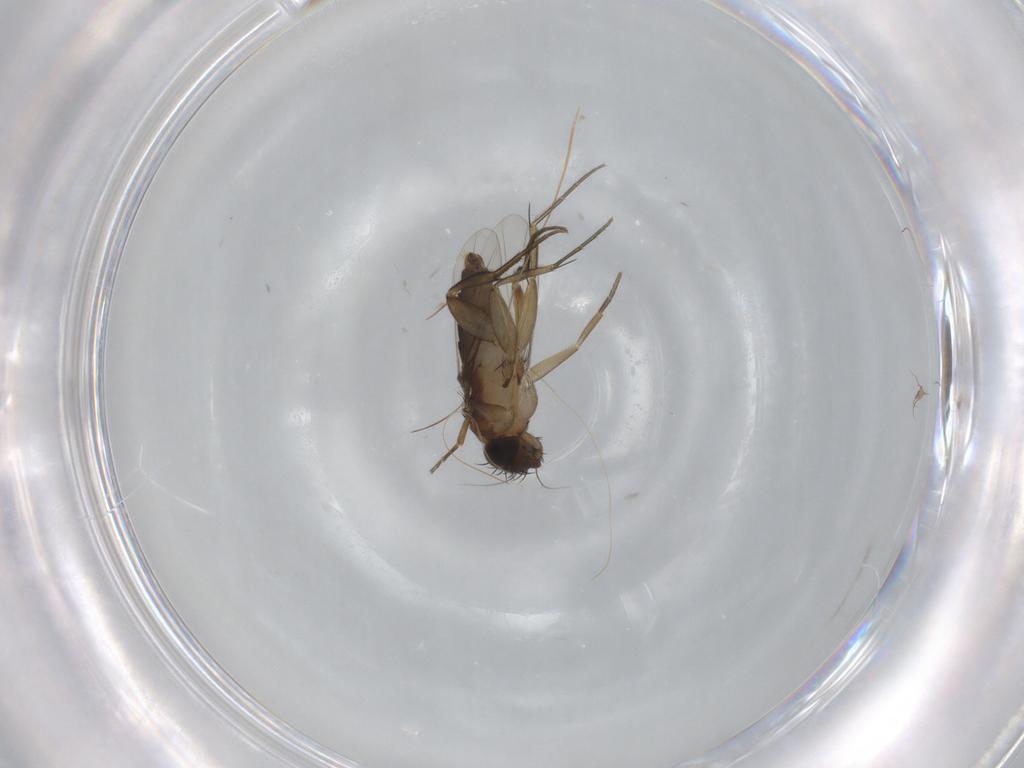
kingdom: Animalia
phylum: Arthropoda
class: Insecta
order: Diptera
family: Phoridae
